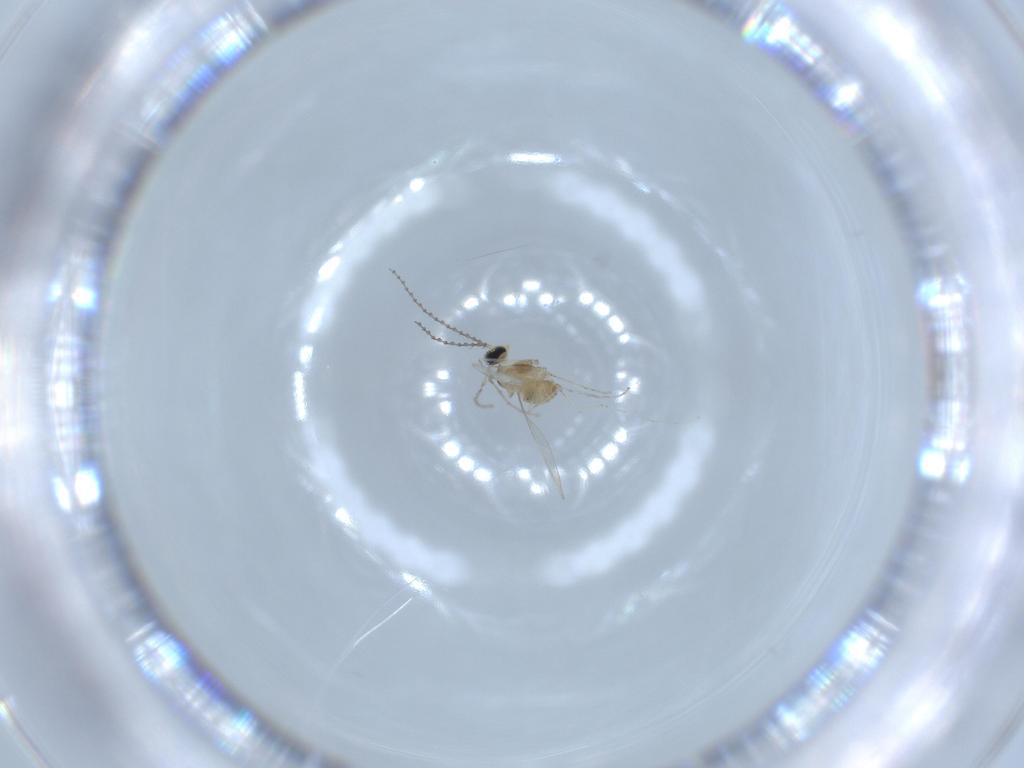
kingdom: Animalia
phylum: Arthropoda
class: Insecta
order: Diptera
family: Cecidomyiidae
